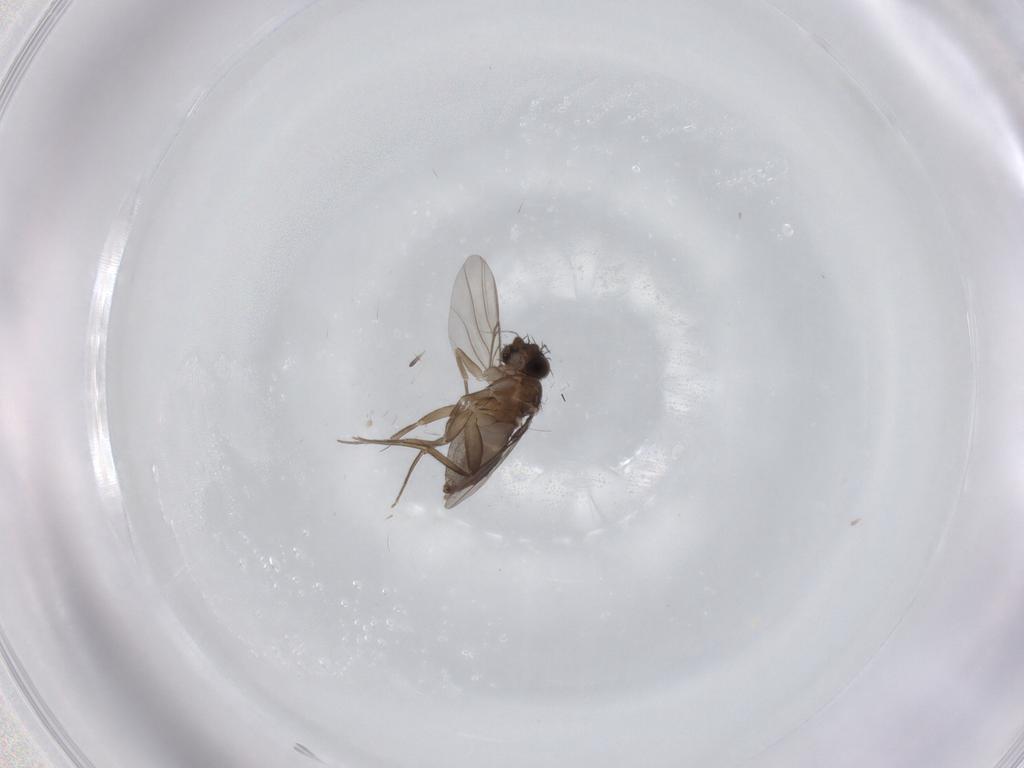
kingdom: Animalia
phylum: Arthropoda
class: Insecta
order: Diptera
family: Phoridae
